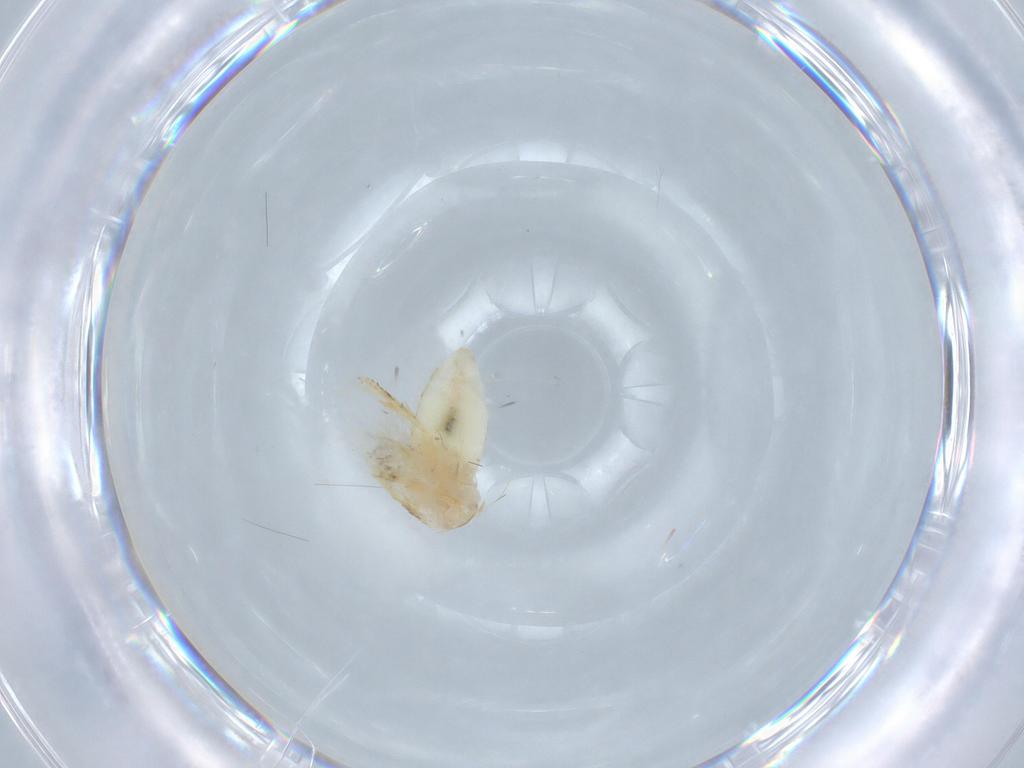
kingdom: Animalia
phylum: Arthropoda
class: Insecta
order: Lepidoptera
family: Nepticulidae
